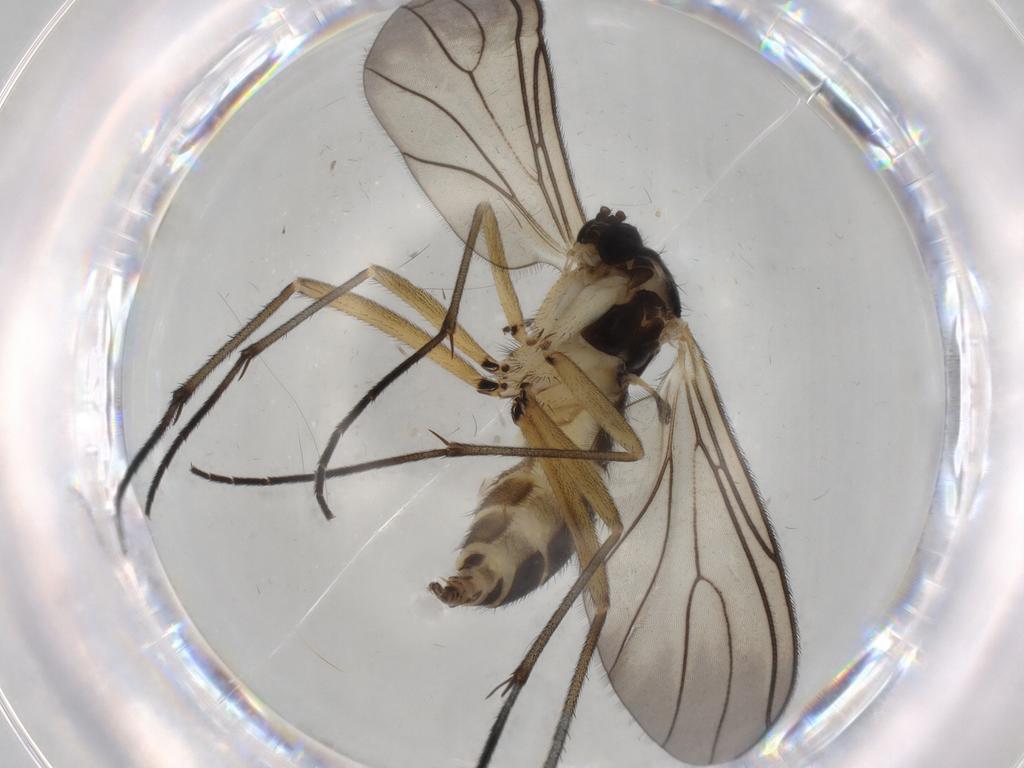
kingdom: Animalia
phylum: Arthropoda
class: Insecta
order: Diptera
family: Sciaridae
